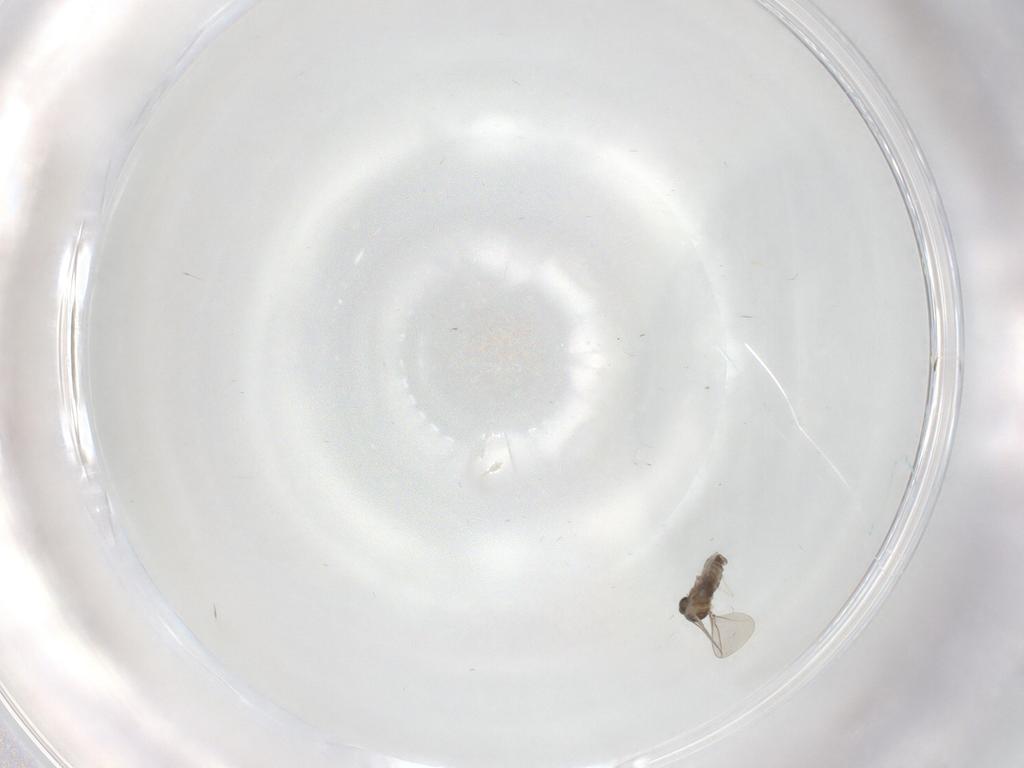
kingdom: Animalia
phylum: Arthropoda
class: Insecta
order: Diptera
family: Cecidomyiidae
